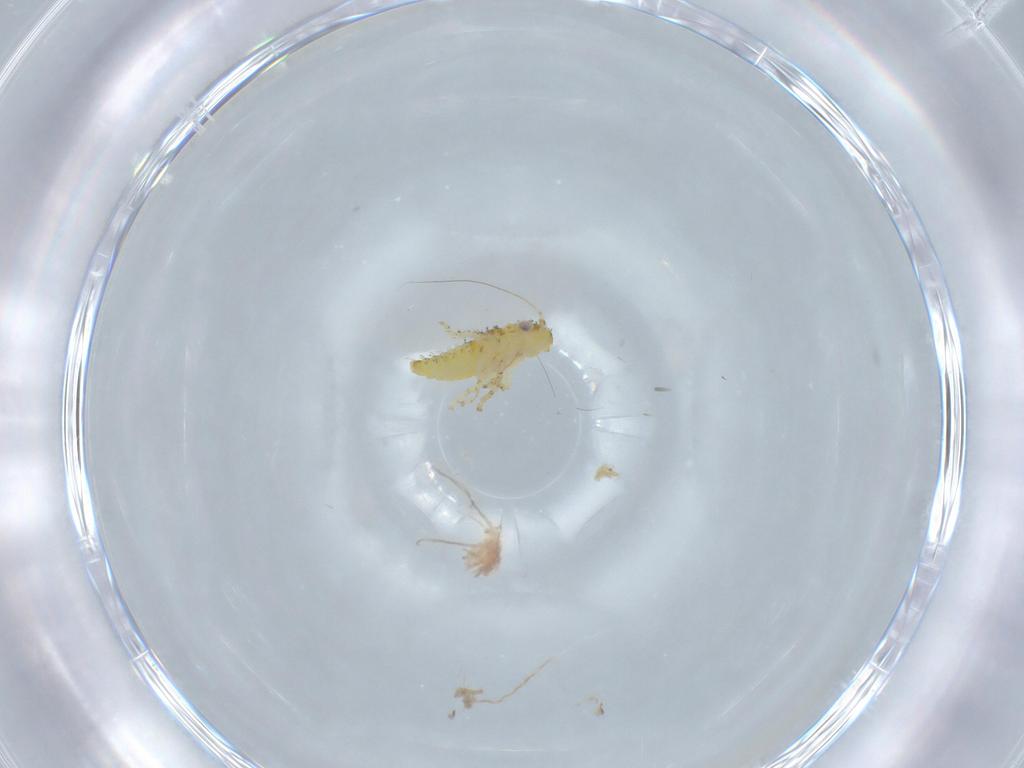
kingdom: Animalia
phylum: Arthropoda
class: Insecta
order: Hemiptera
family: Cicadellidae
